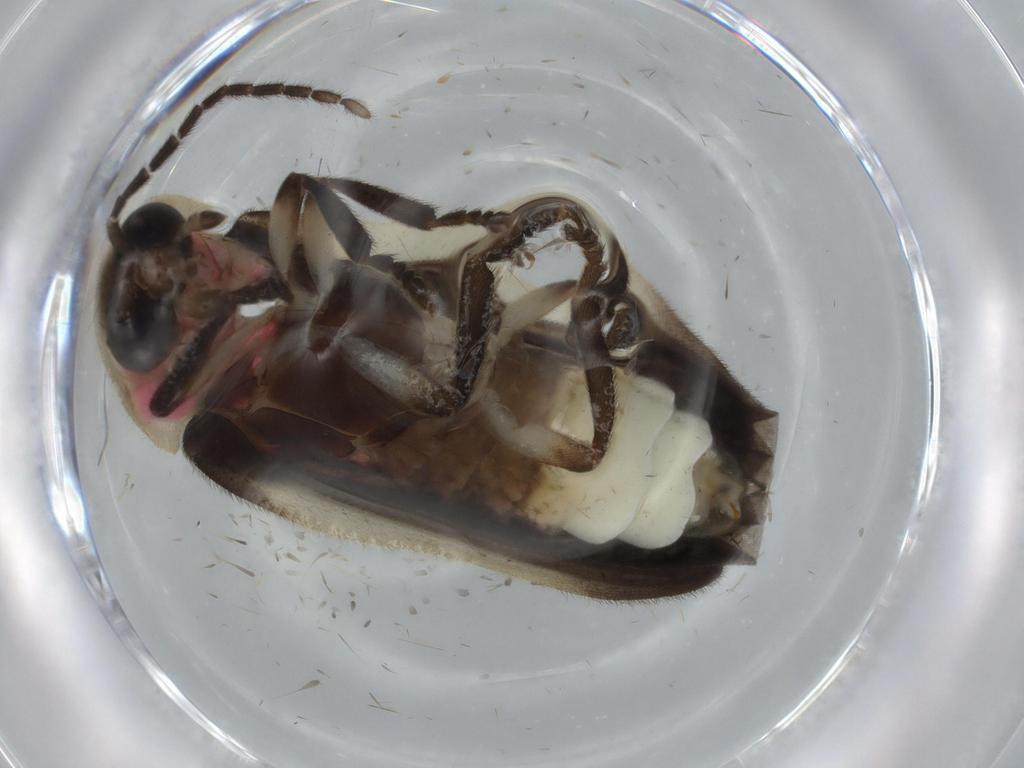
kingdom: Animalia
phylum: Arthropoda
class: Insecta
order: Coleoptera
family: Lampyridae
